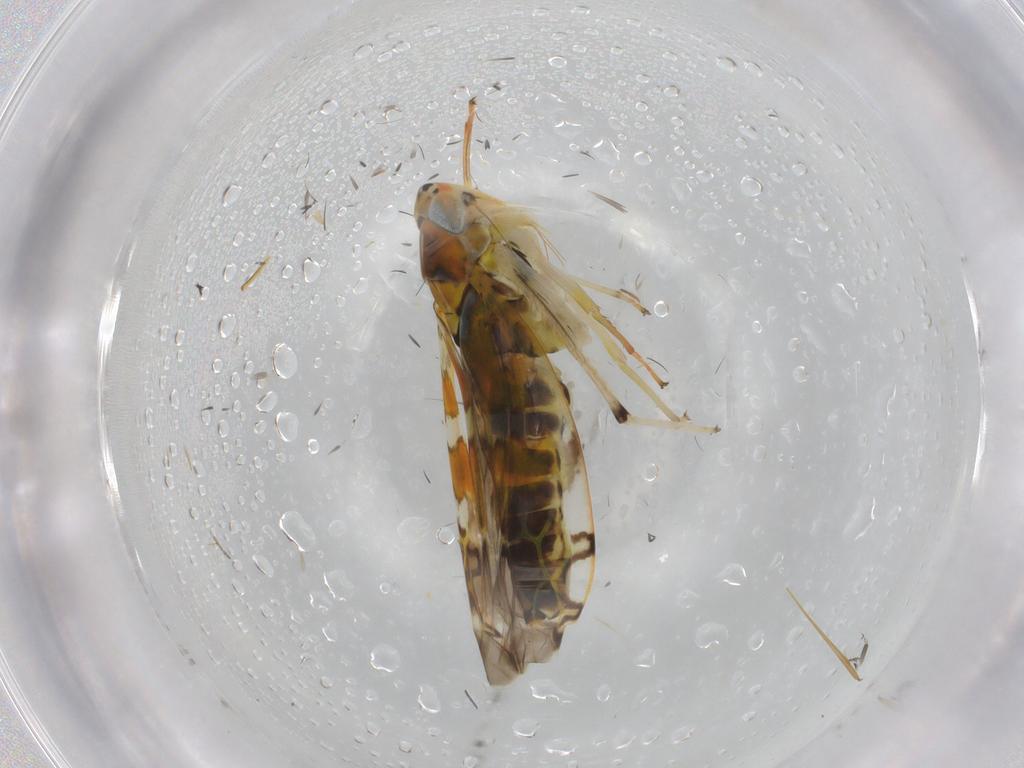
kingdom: Animalia
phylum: Arthropoda
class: Insecta
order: Hemiptera
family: Cicadellidae
